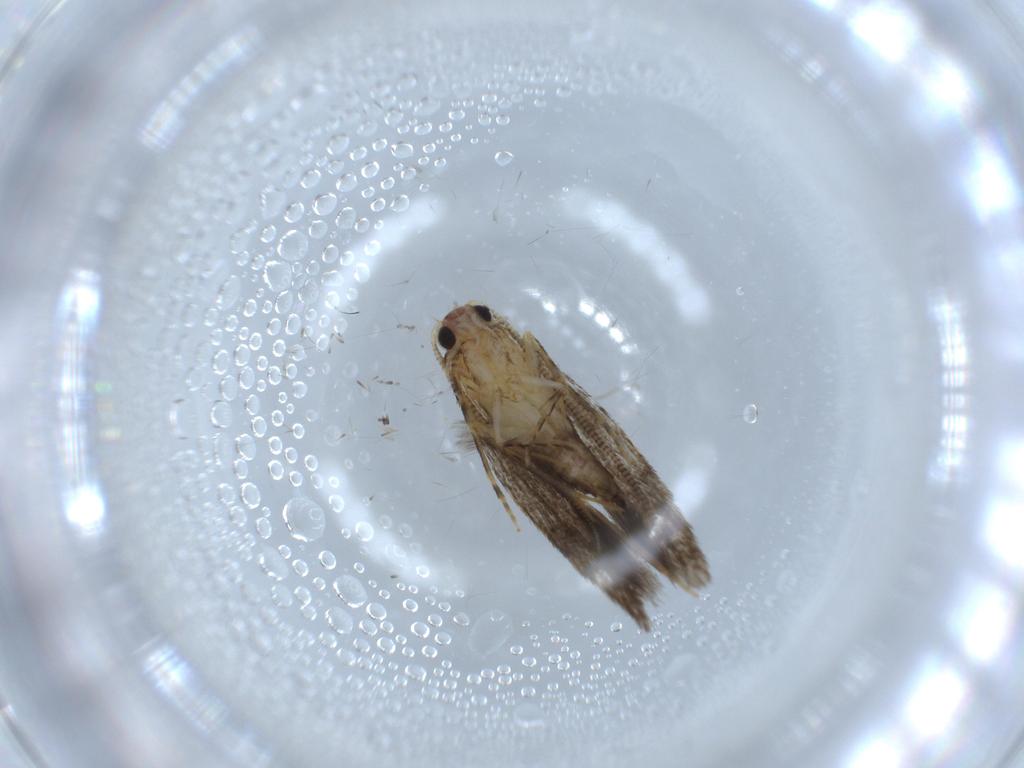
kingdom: Animalia
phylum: Arthropoda
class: Insecta
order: Lepidoptera
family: Tineidae
